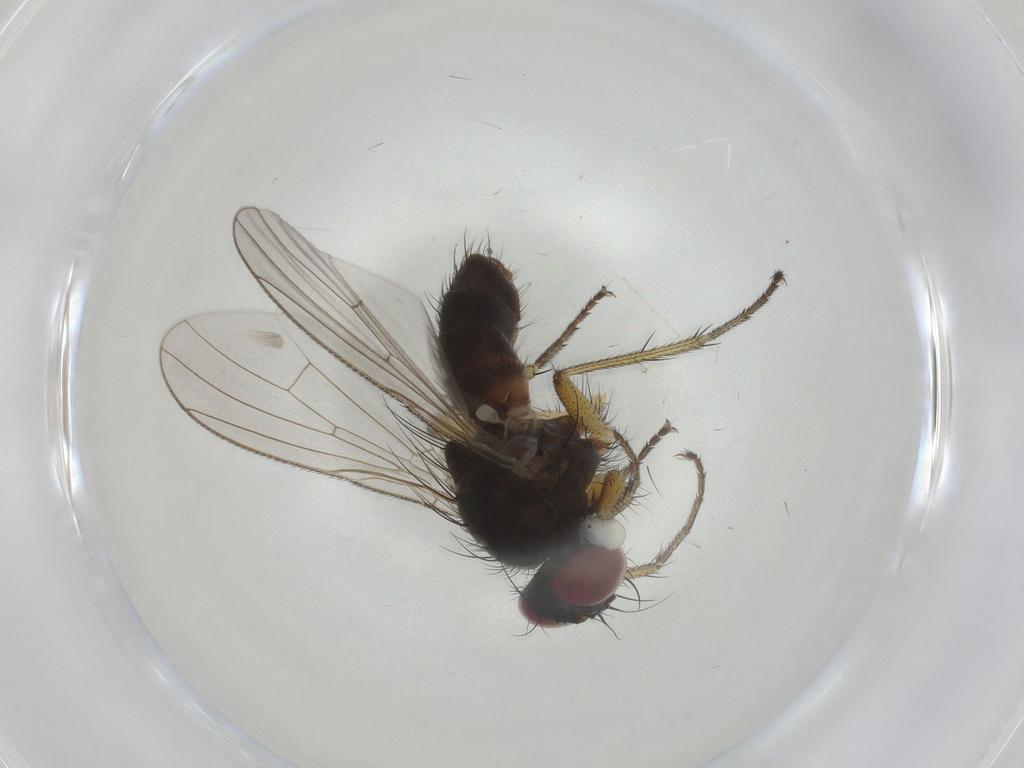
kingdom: Animalia
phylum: Arthropoda
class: Insecta
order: Diptera
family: Muscidae
